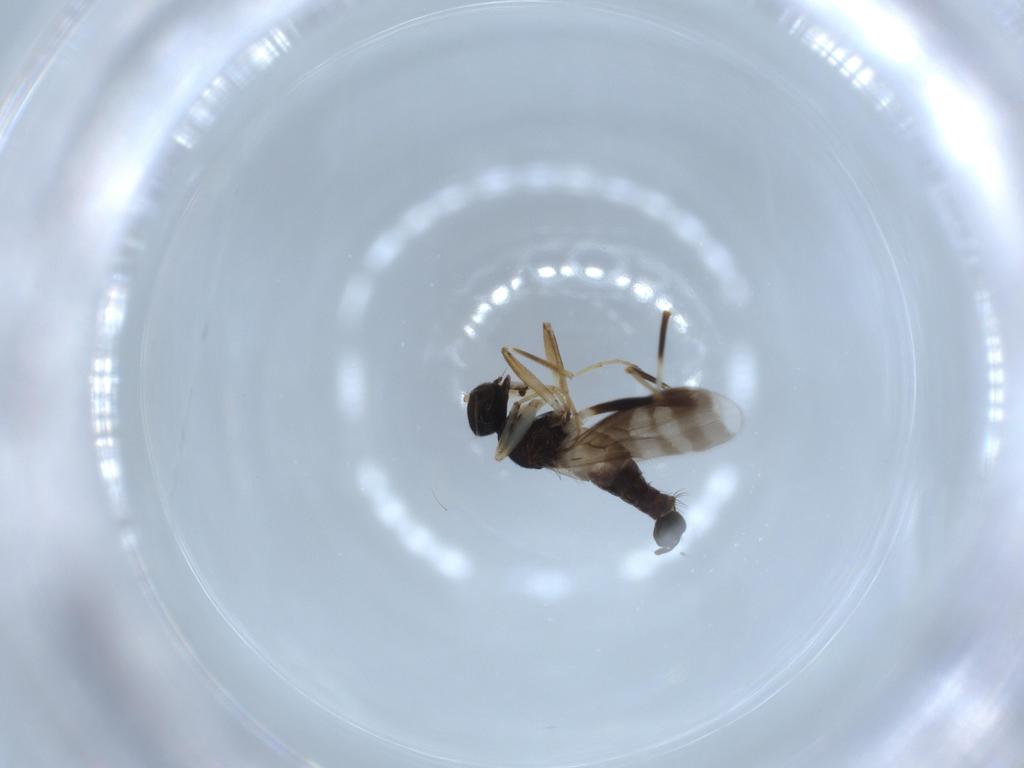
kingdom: Animalia
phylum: Arthropoda
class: Insecta
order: Diptera
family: Hybotidae
